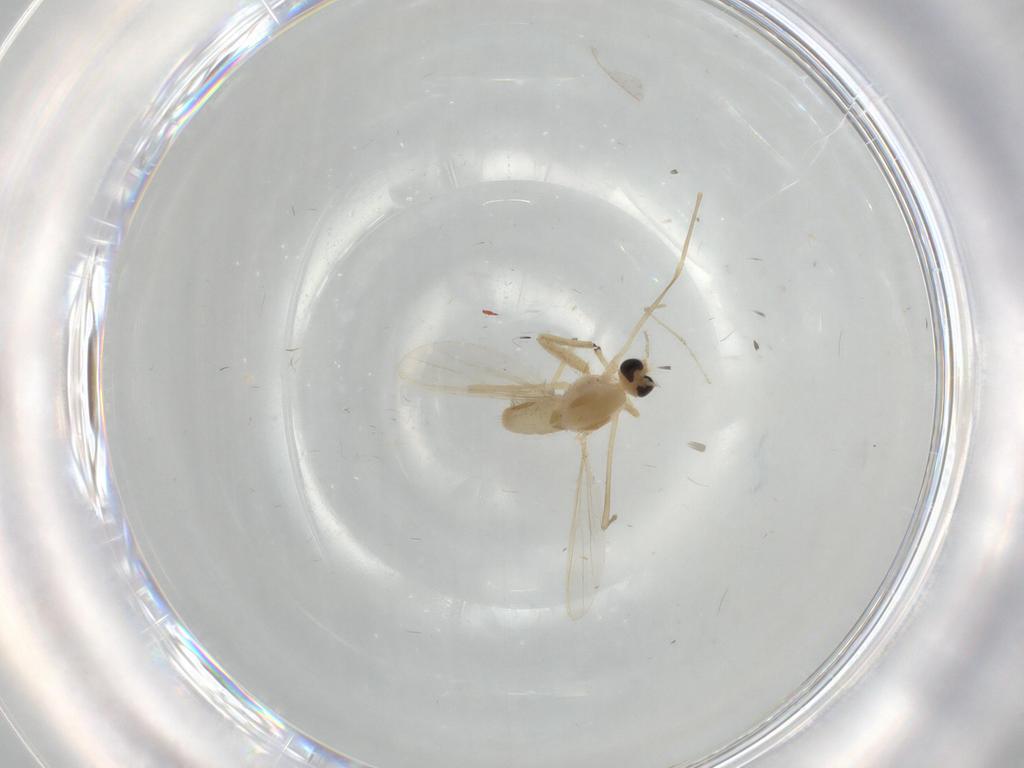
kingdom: Animalia
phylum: Arthropoda
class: Insecta
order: Diptera
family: Chironomidae
